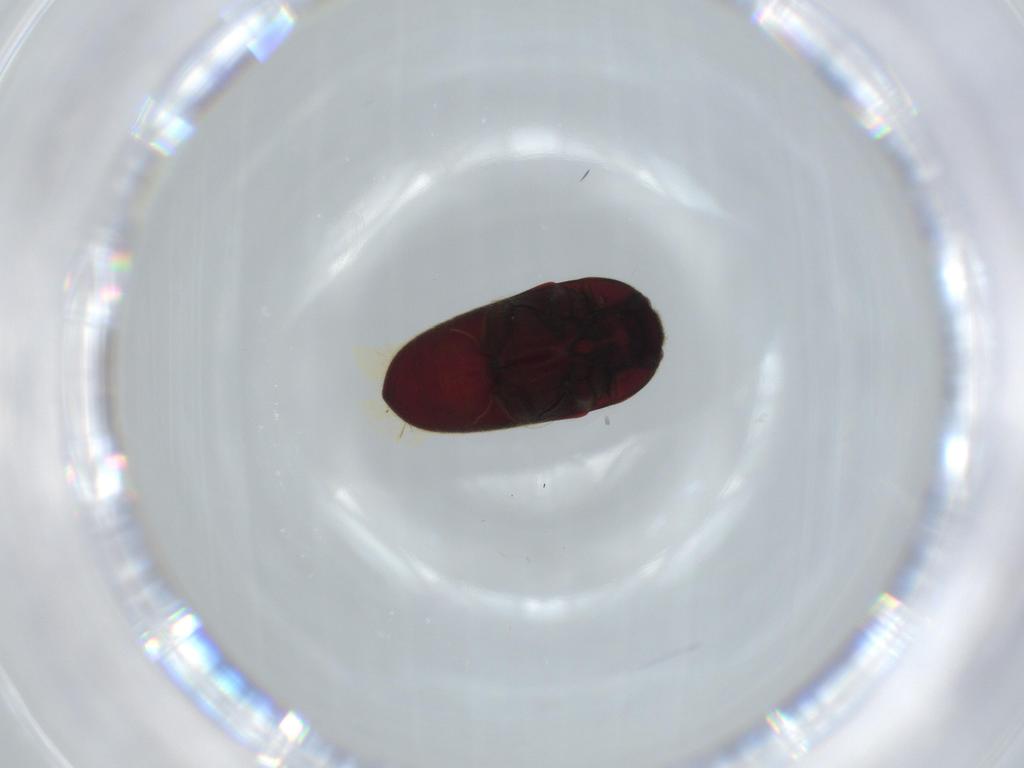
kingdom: Animalia
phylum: Arthropoda
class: Insecta
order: Coleoptera
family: Throscidae
